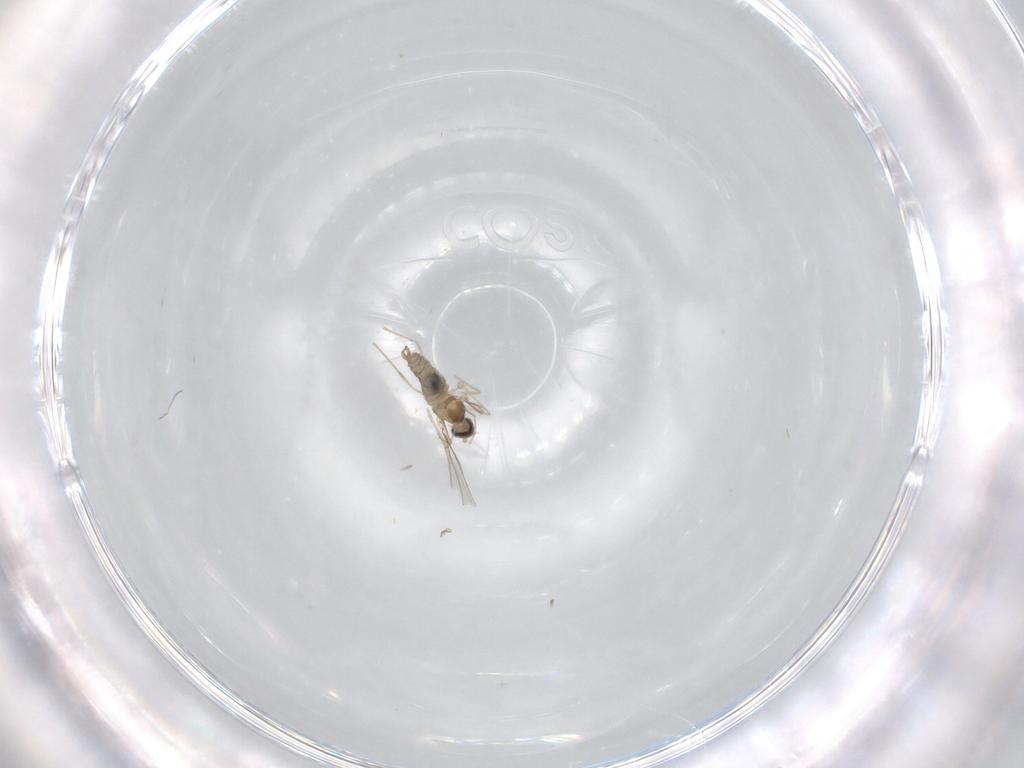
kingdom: Animalia
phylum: Arthropoda
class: Insecta
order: Diptera
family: Cecidomyiidae
